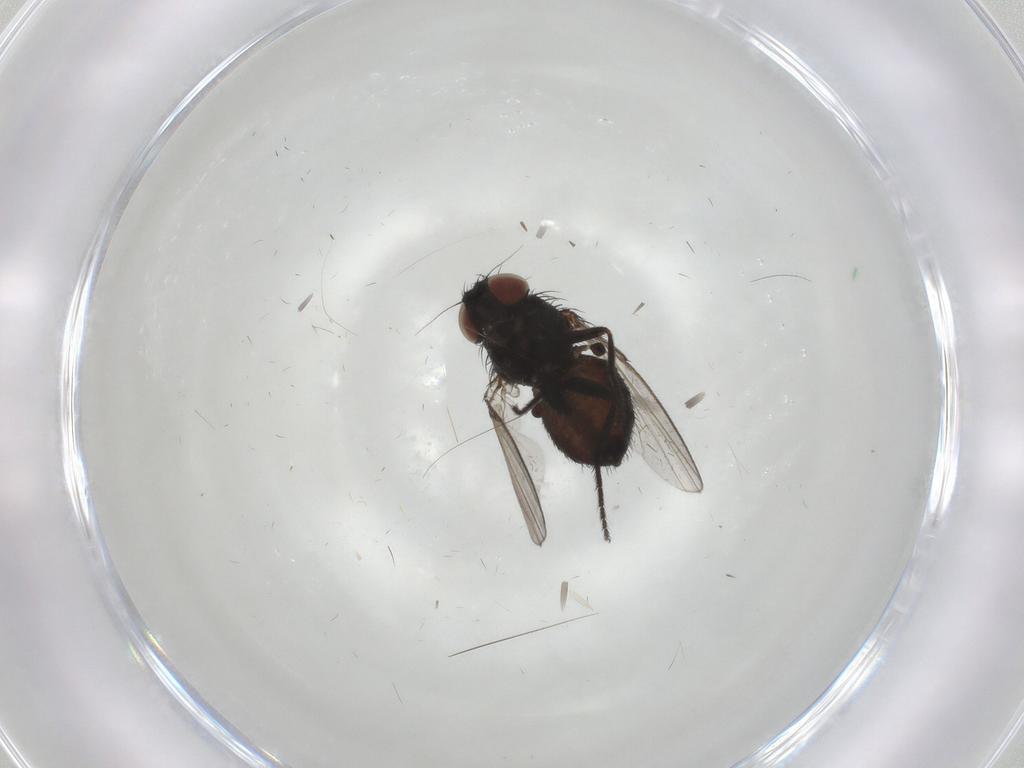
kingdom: Animalia
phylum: Arthropoda
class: Insecta
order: Diptera
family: Milichiidae
